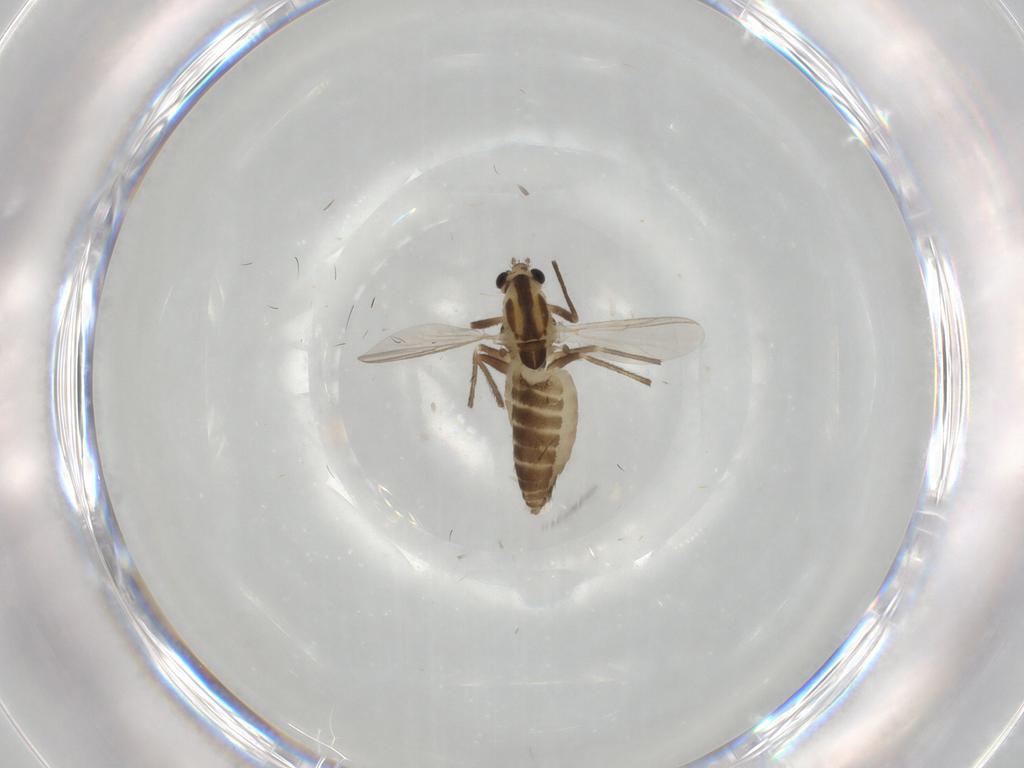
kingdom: Animalia
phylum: Arthropoda
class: Insecta
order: Diptera
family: Chironomidae
